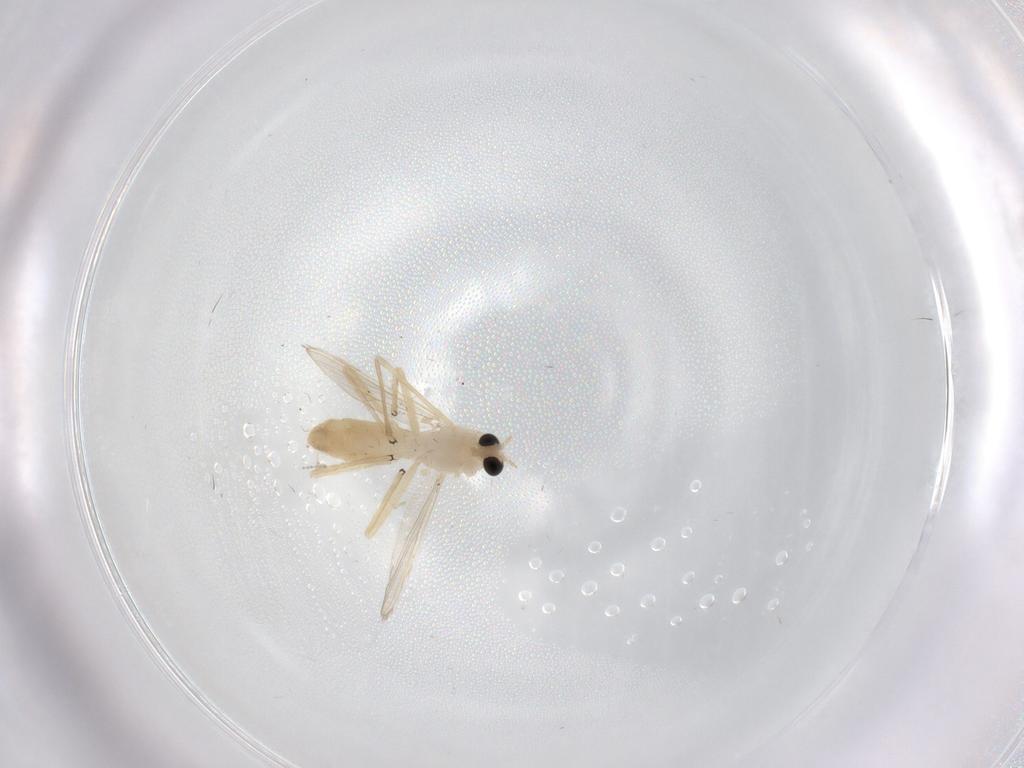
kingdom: Animalia
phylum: Arthropoda
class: Insecta
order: Diptera
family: Chironomidae
